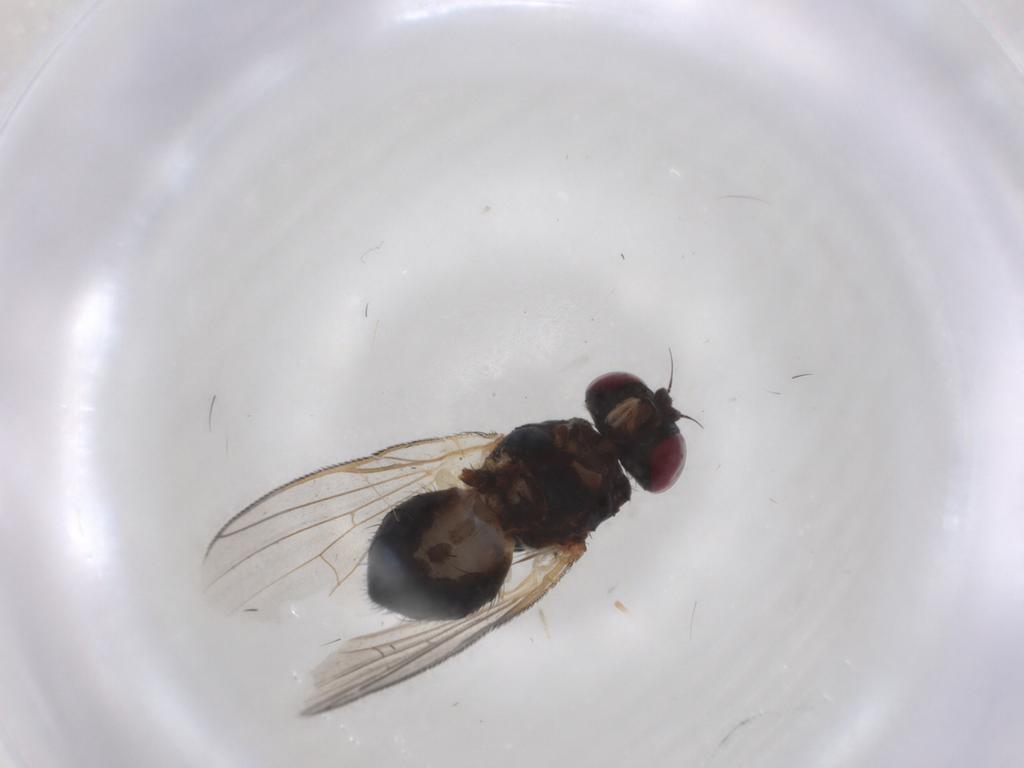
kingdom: Animalia
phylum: Arthropoda
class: Insecta
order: Diptera
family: Fannia
